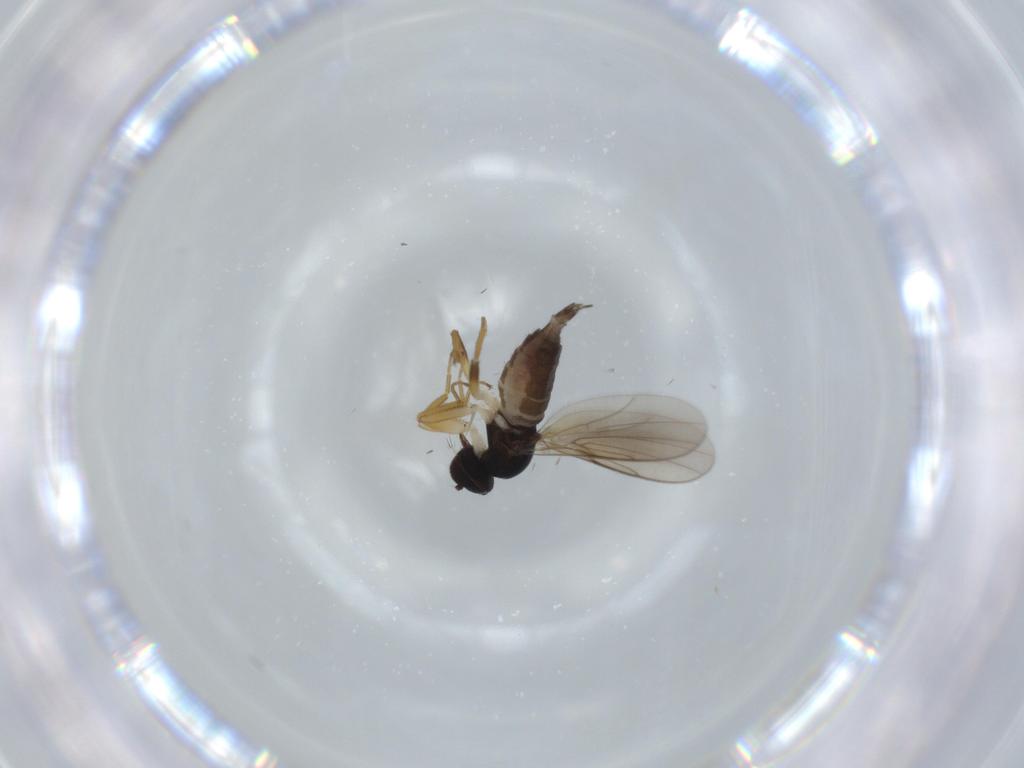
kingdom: Animalia
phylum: Arthropoda
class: Insecta
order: Diptera
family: Hybotidae
